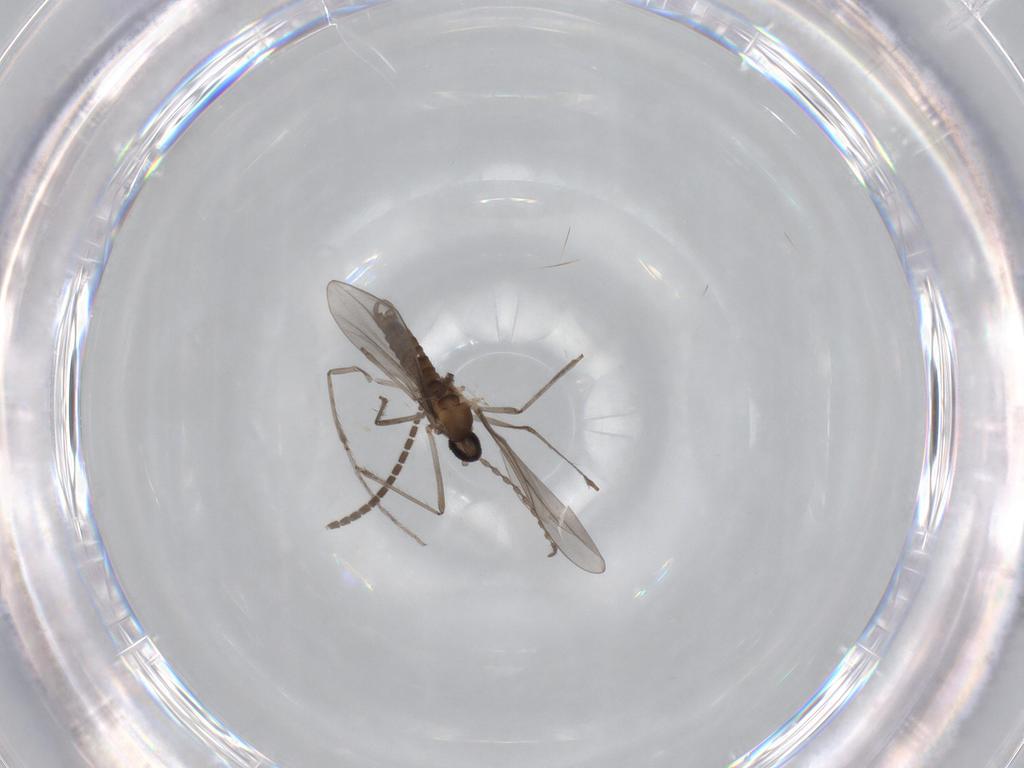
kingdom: Animalia
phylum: Arthropoda
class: Insecta
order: Diptera
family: Sciaridae
